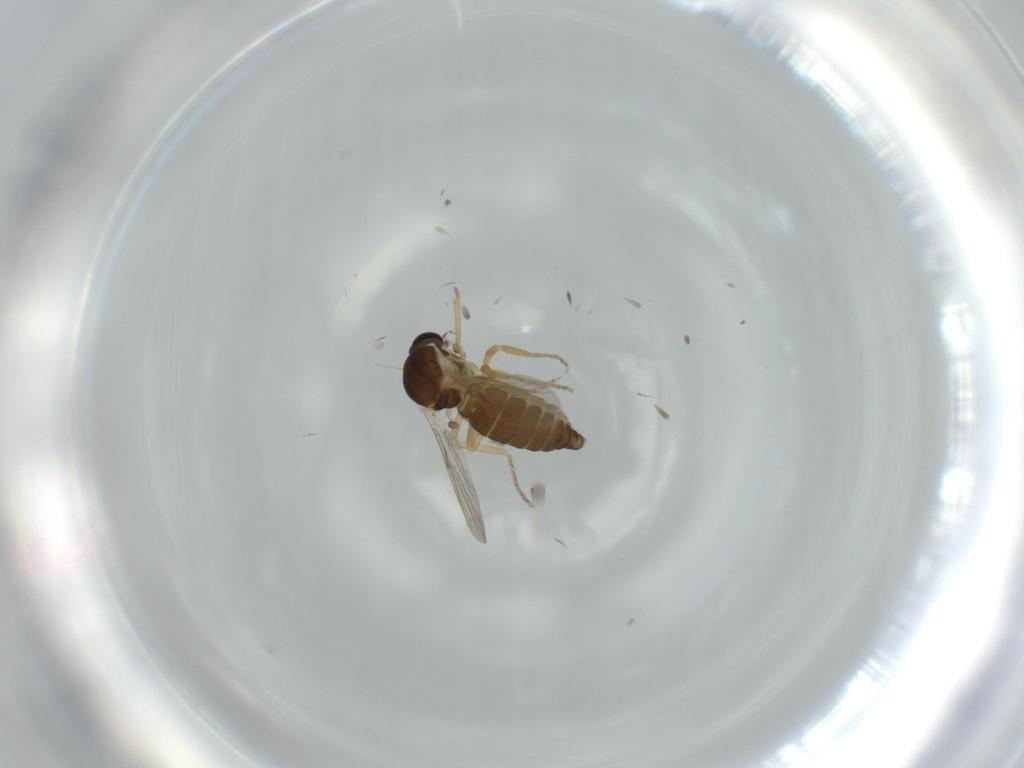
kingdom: Animalia
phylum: Arthropoda
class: Insecta
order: Diptera
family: Ceratopogonidae
